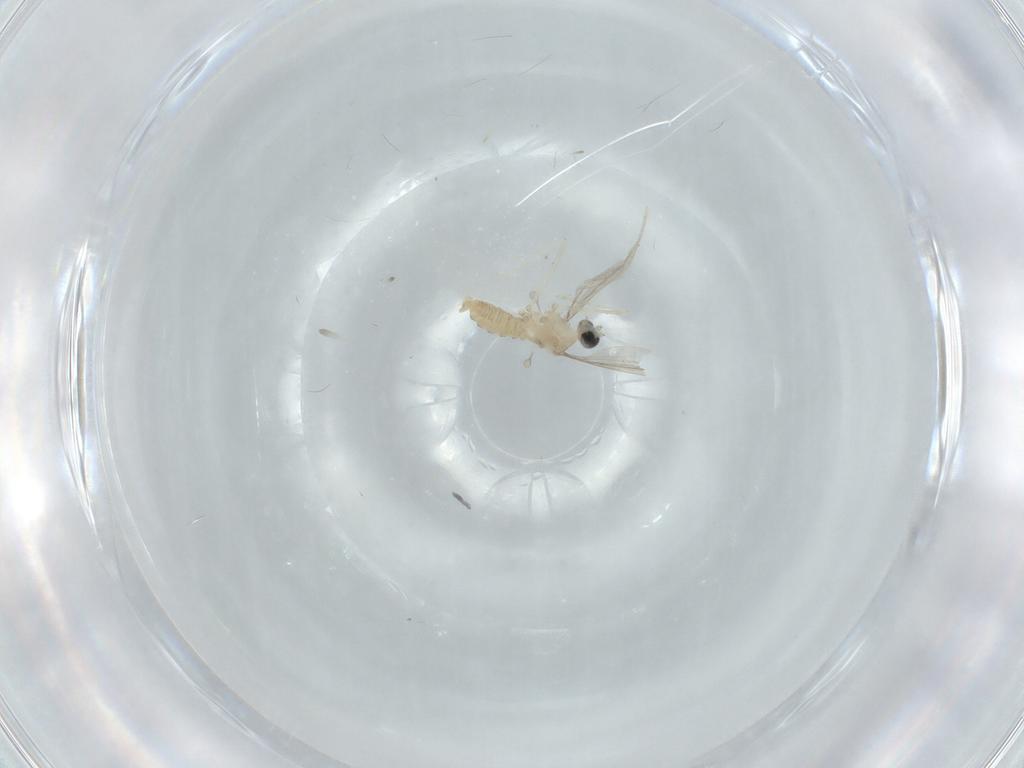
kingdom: Animalia
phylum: Arthropoda
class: Insecta
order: Diptera
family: Cecidomyiidae
